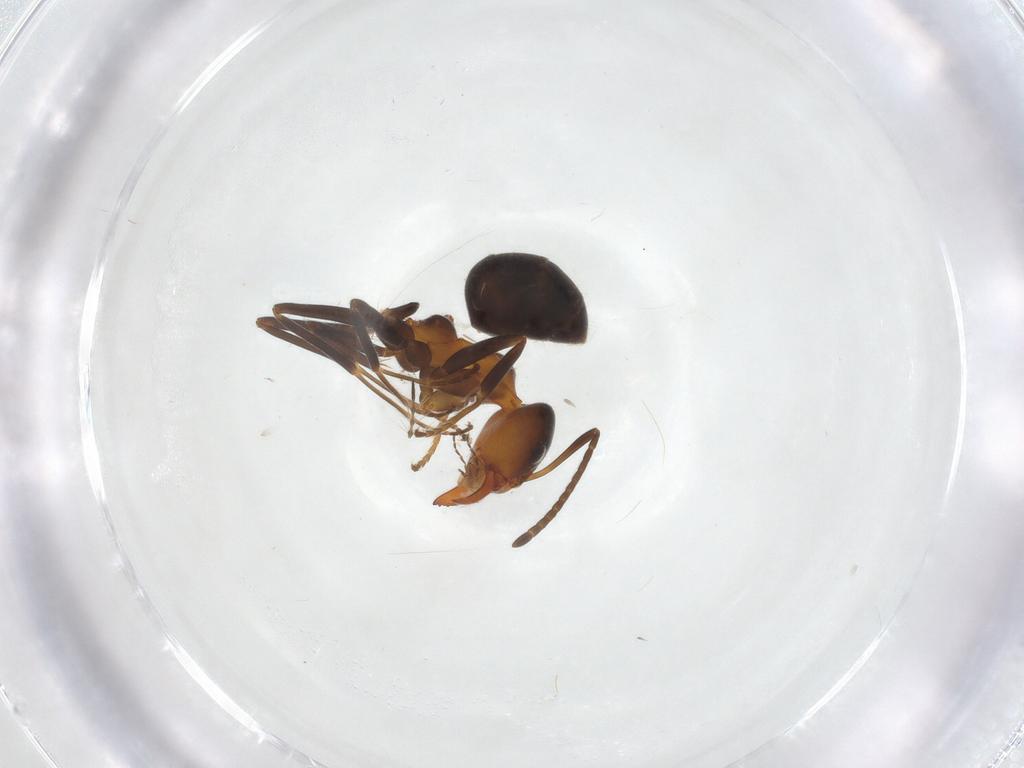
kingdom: Animalia
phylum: Arthropoda
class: Insecta
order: Hymenoptera
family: Formicidae
